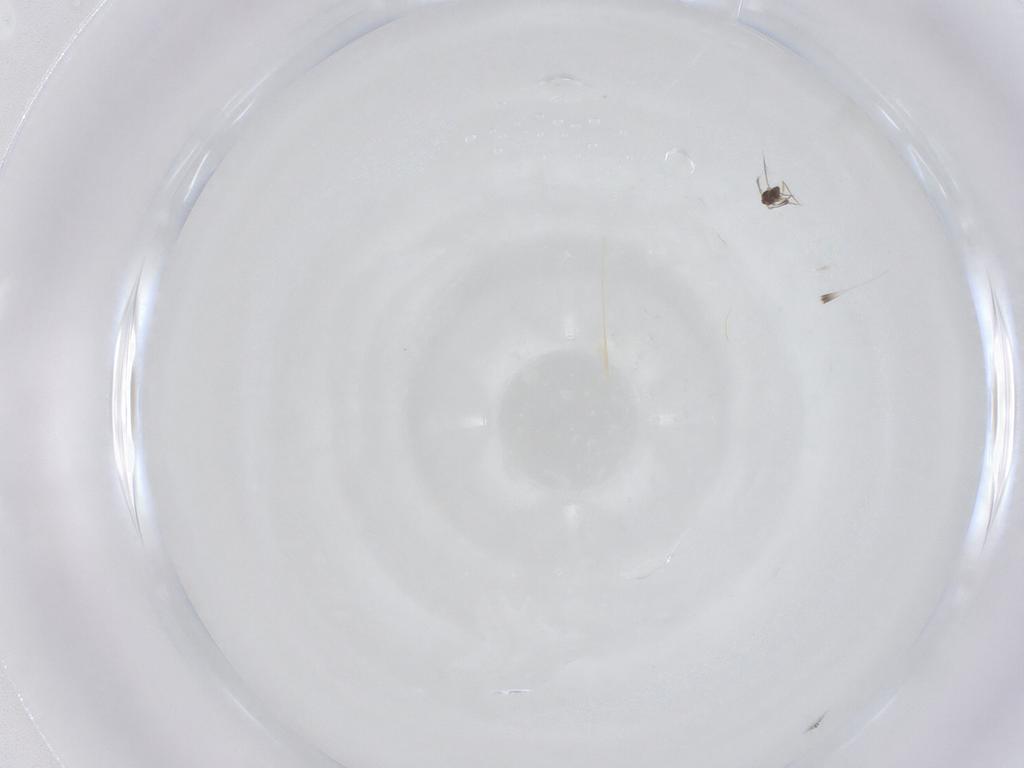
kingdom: Animalia
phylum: Arthropoda
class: Insecta
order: Hymenoptera
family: Mymaridae
